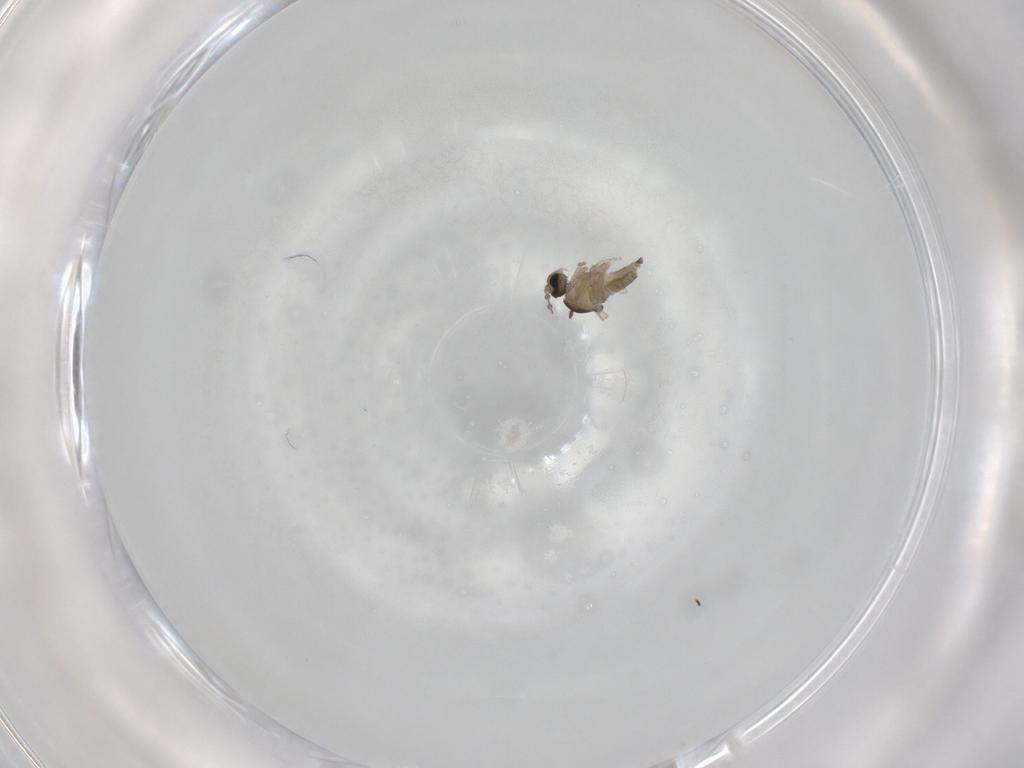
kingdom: Animalia
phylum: Arthropoda
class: Insecta
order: Diptera
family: Cecidomyiidae
